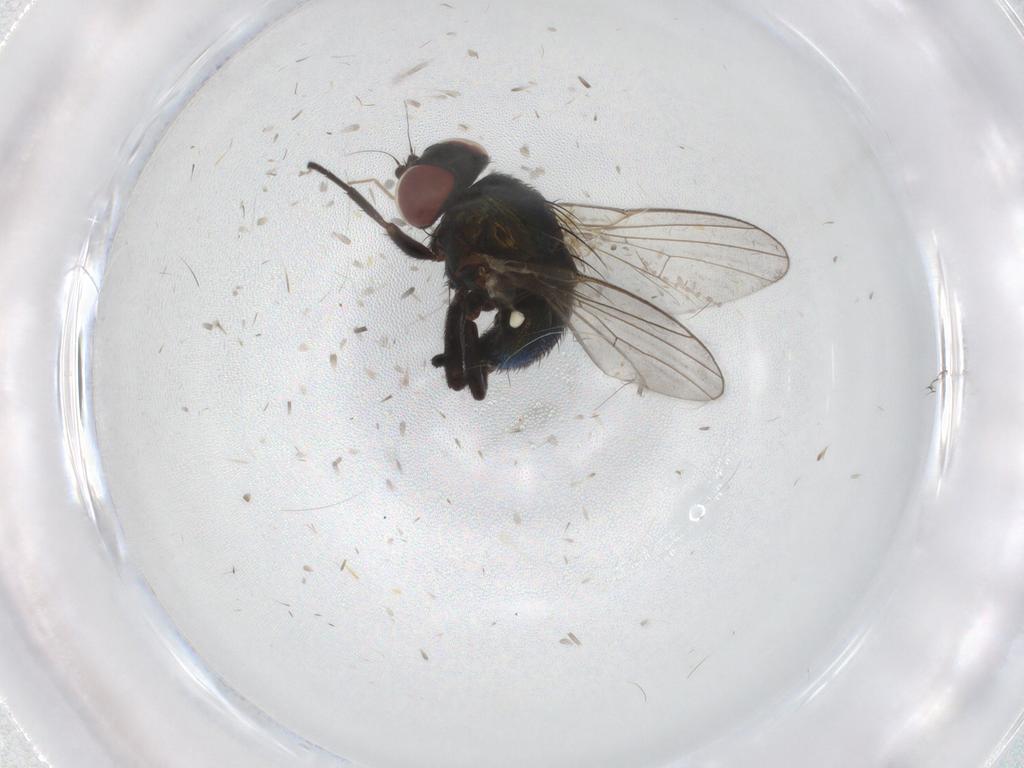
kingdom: Animalia
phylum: Arthropoda
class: Insecta
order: Diptera
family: Agromyzidae
